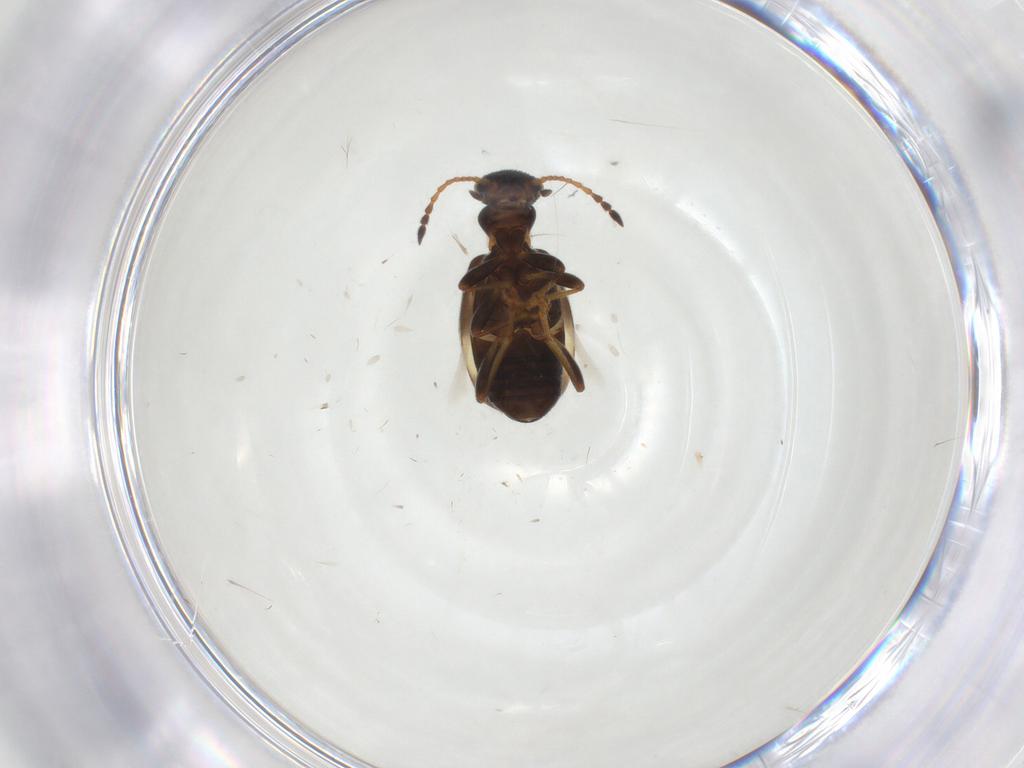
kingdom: Animalia
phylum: Arthropoda
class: Insecta
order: Coleoptera
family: Anthicidae
